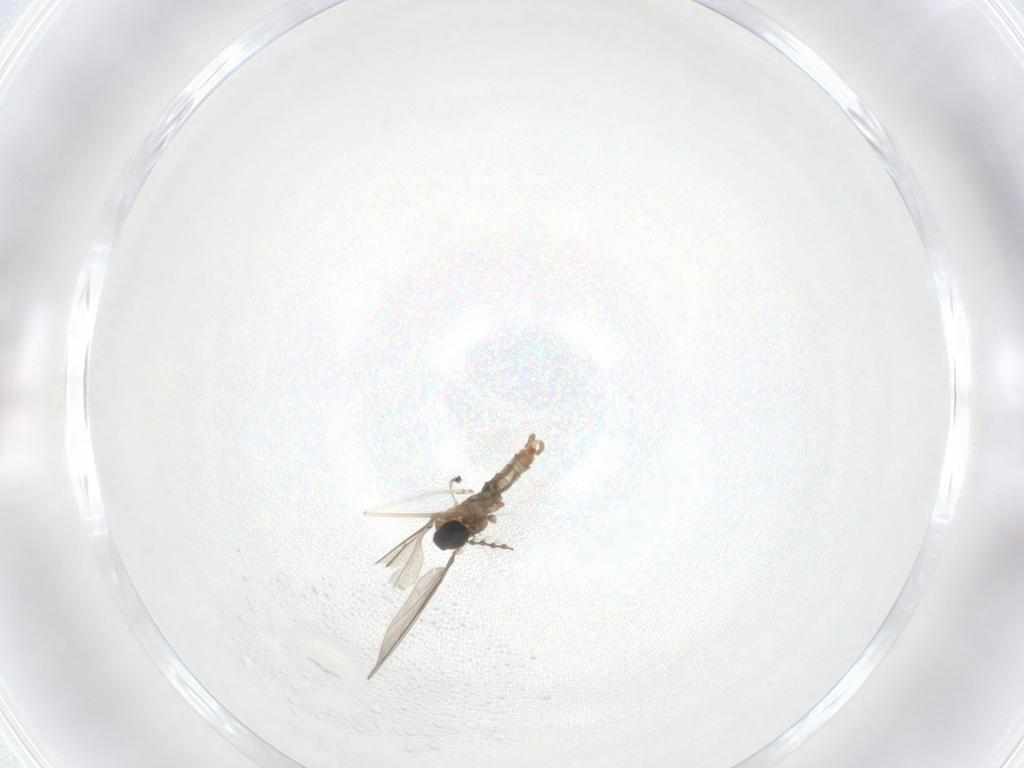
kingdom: Animalia
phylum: Arthropoda
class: Insecta
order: Diptera
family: Cecidomyiidae
